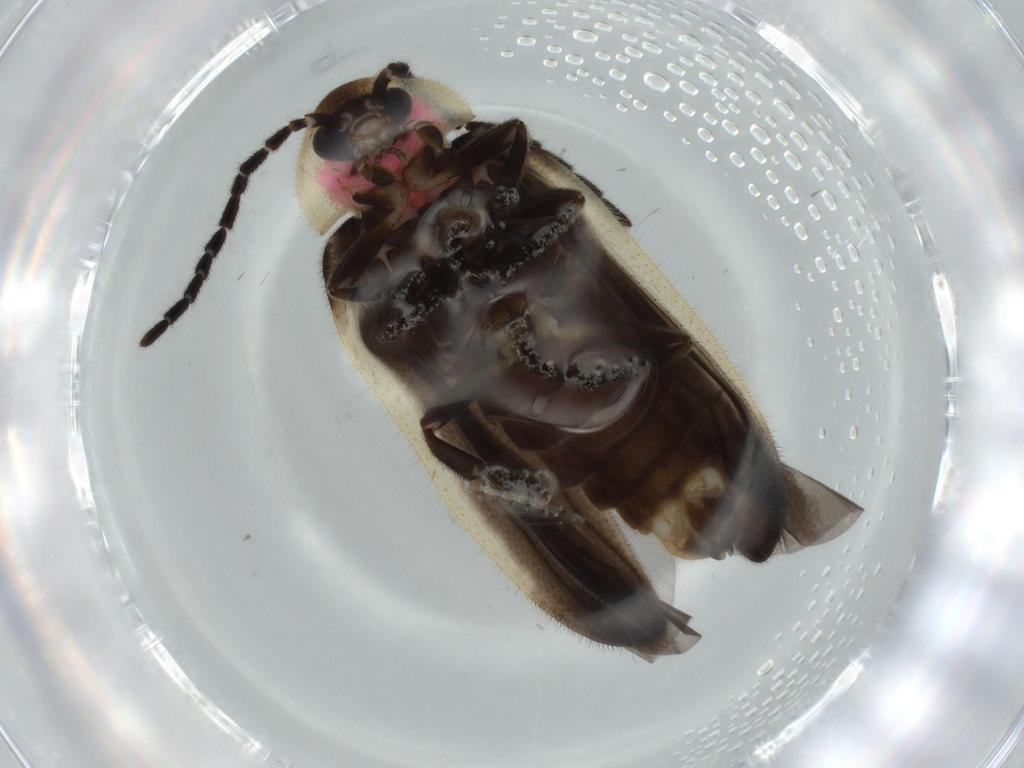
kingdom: Animalia
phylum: Arthropoda
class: Insecta
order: Coleoptera
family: Lampyridae
